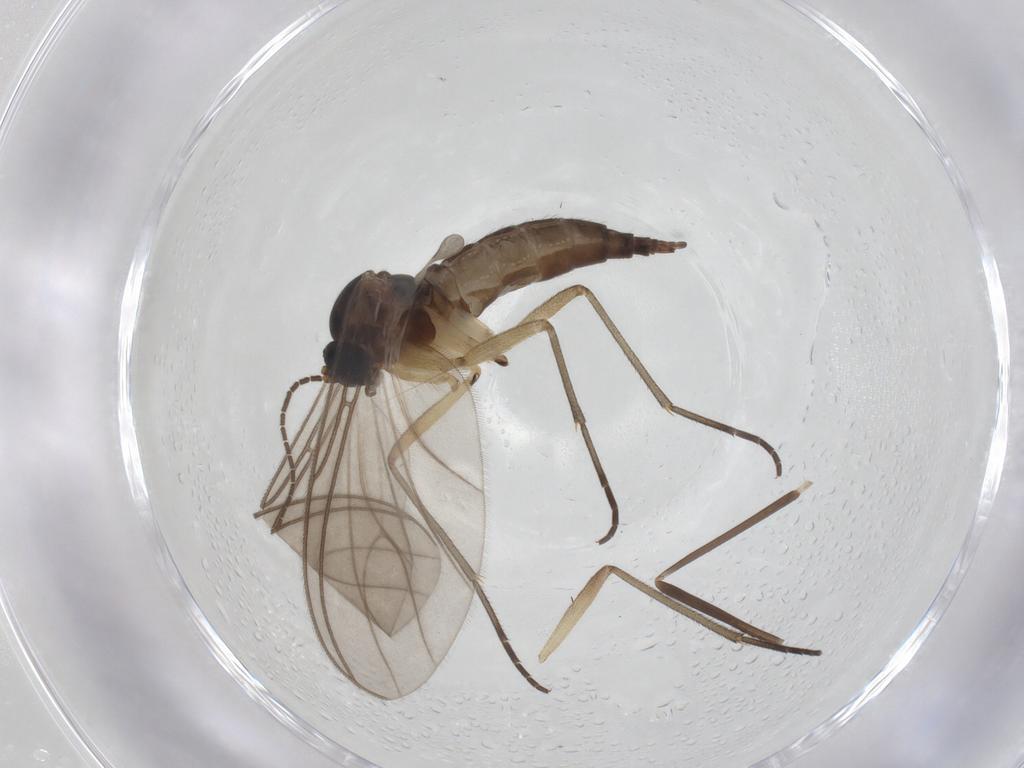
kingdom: Animalia
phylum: Arthropoda
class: Insecta
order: Diptera
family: Sciaridae
